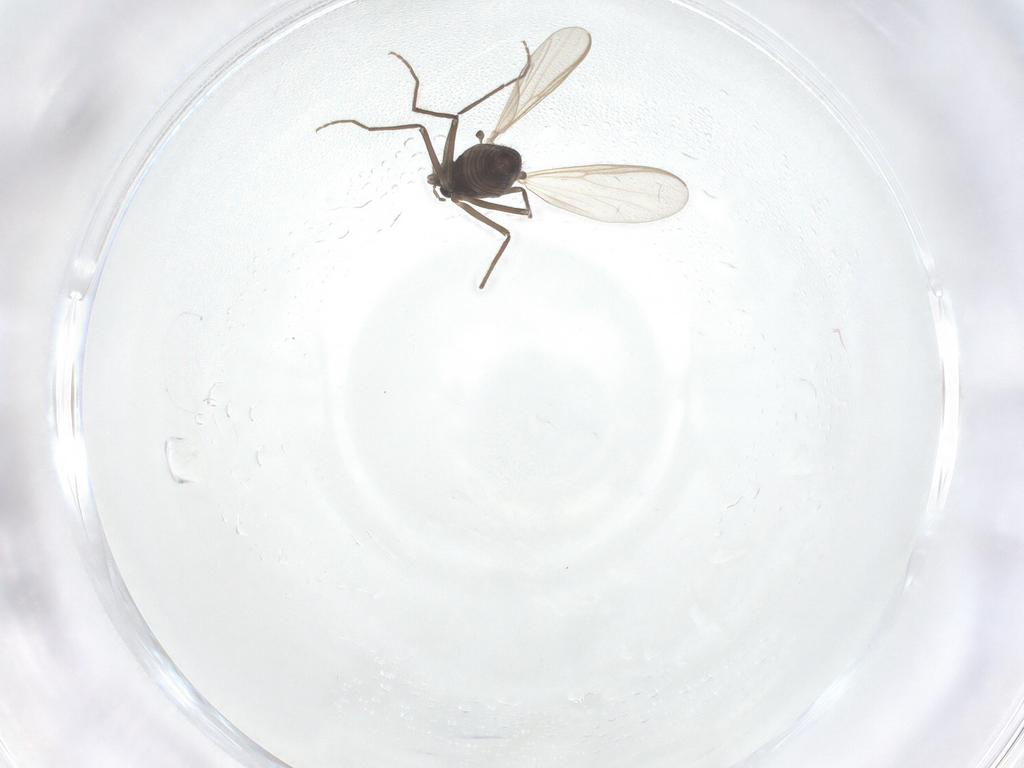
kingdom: Animalia
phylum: Arthropoda
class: Insecta
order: Diptera
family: Chironomidae
